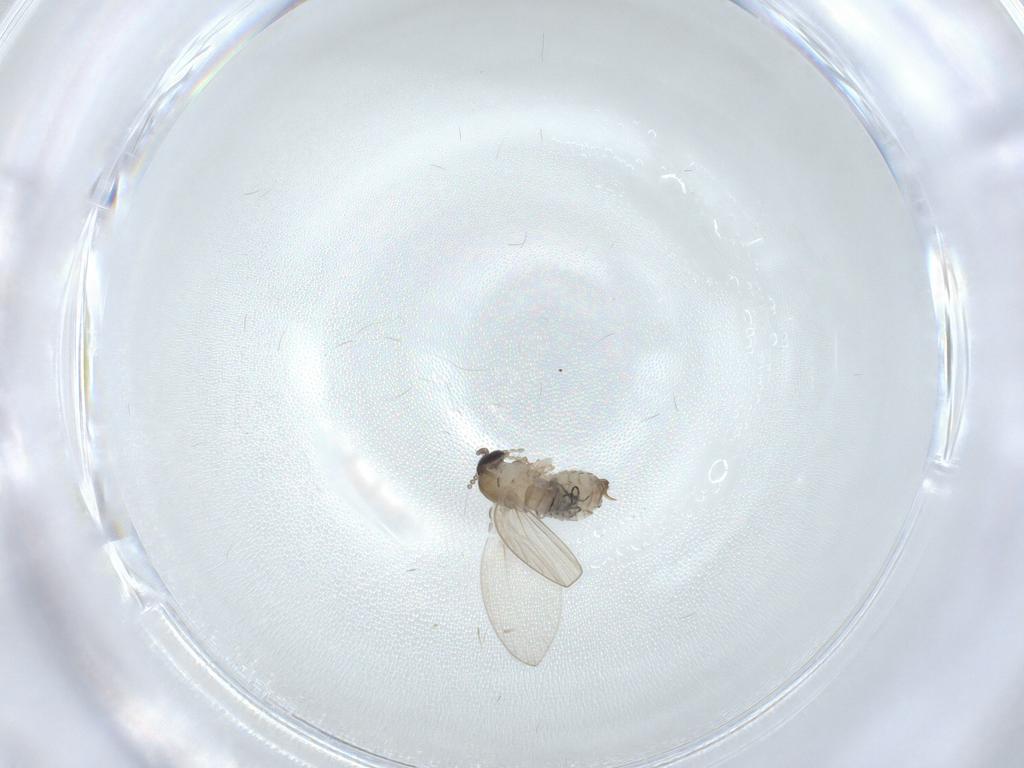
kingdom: Animalia
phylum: Arthropoda
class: Insecta
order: Diptera
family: Psychodidae
